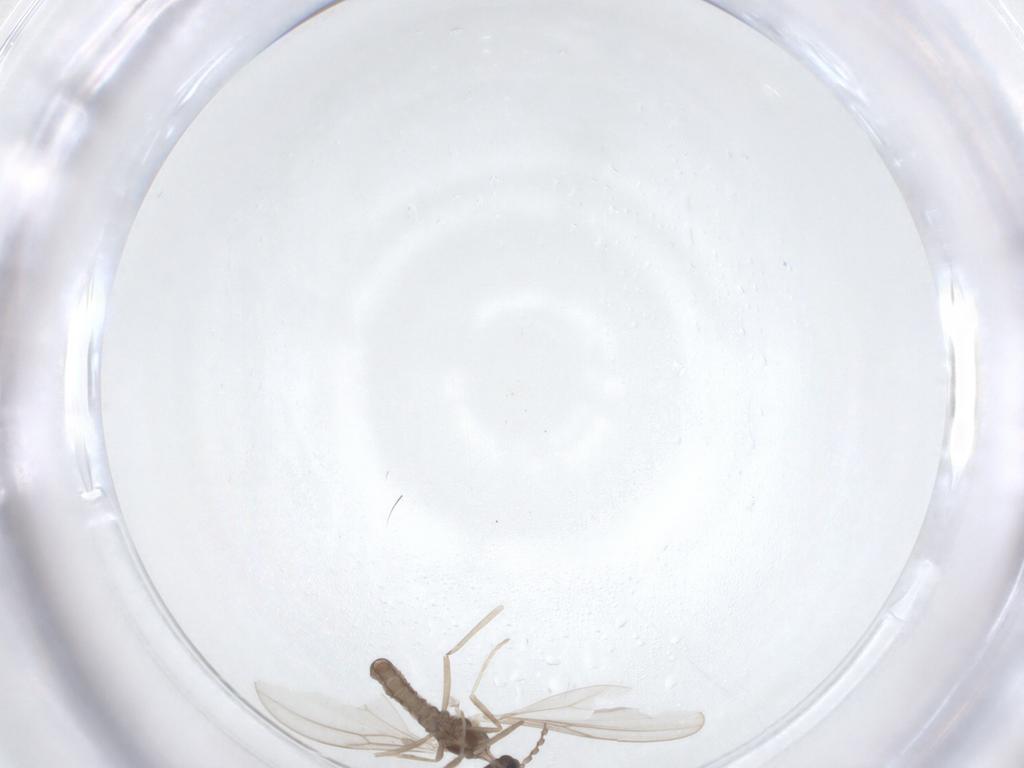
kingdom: Animalia
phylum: Arthropoda
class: Insecta
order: Diptera
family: Cecidomyiidae
